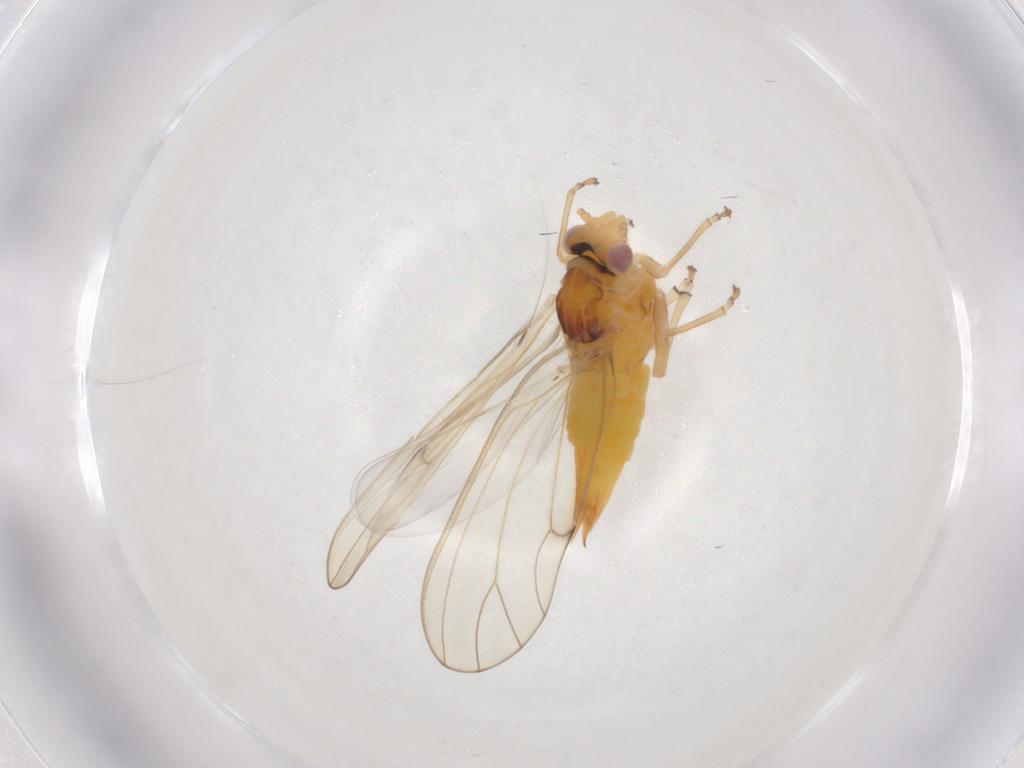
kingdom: Animalia
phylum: Arthropoda
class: Insecta
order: Hemiptera
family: Psylloidea_incertae_sedis
